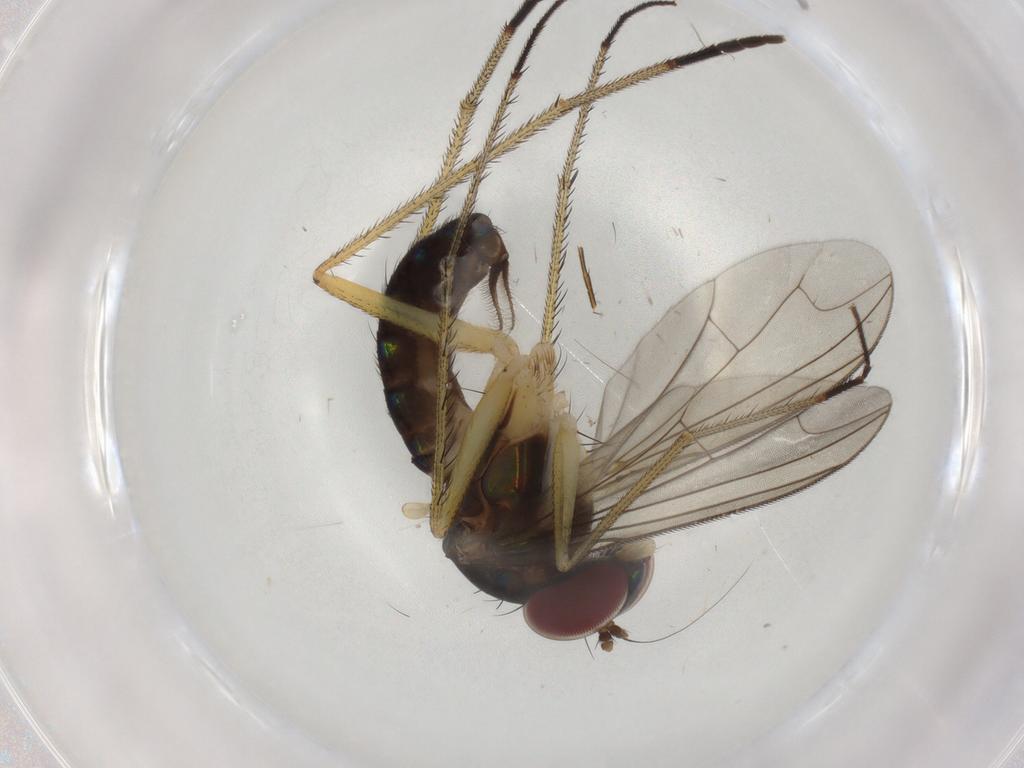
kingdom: Animalia
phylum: Arthropoda
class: Insecta
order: Diptera
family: Dolichopodidae
